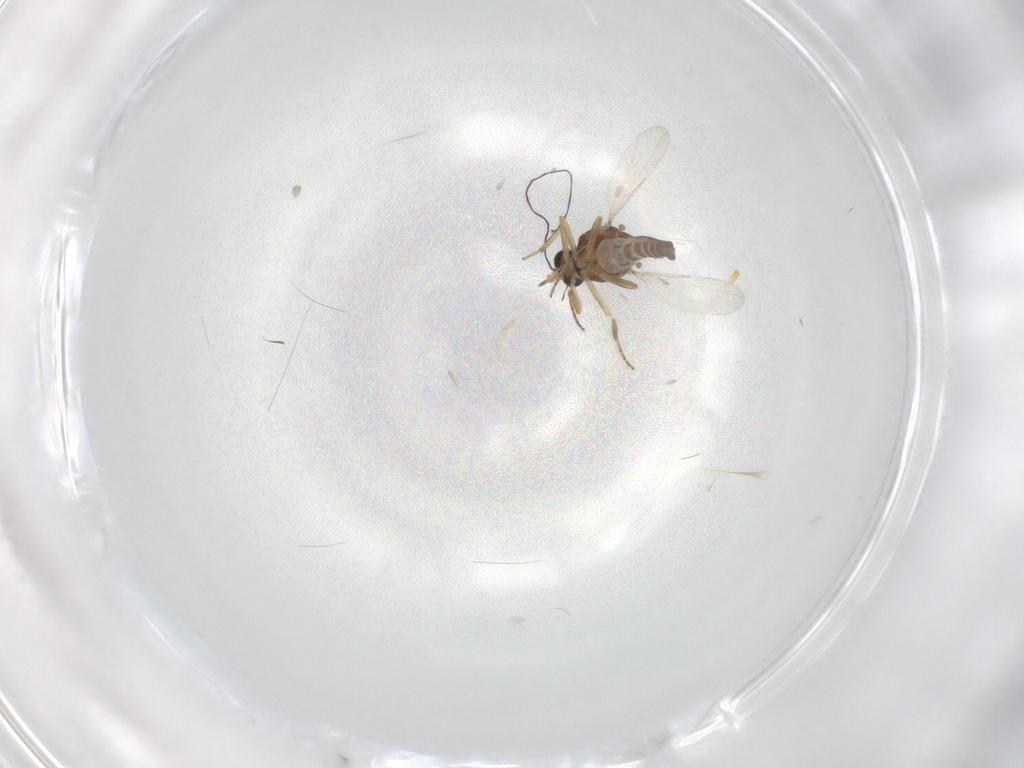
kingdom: Animalia
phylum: Arthropoda
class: Insecta
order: Diptera
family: Ceratopogonidae
